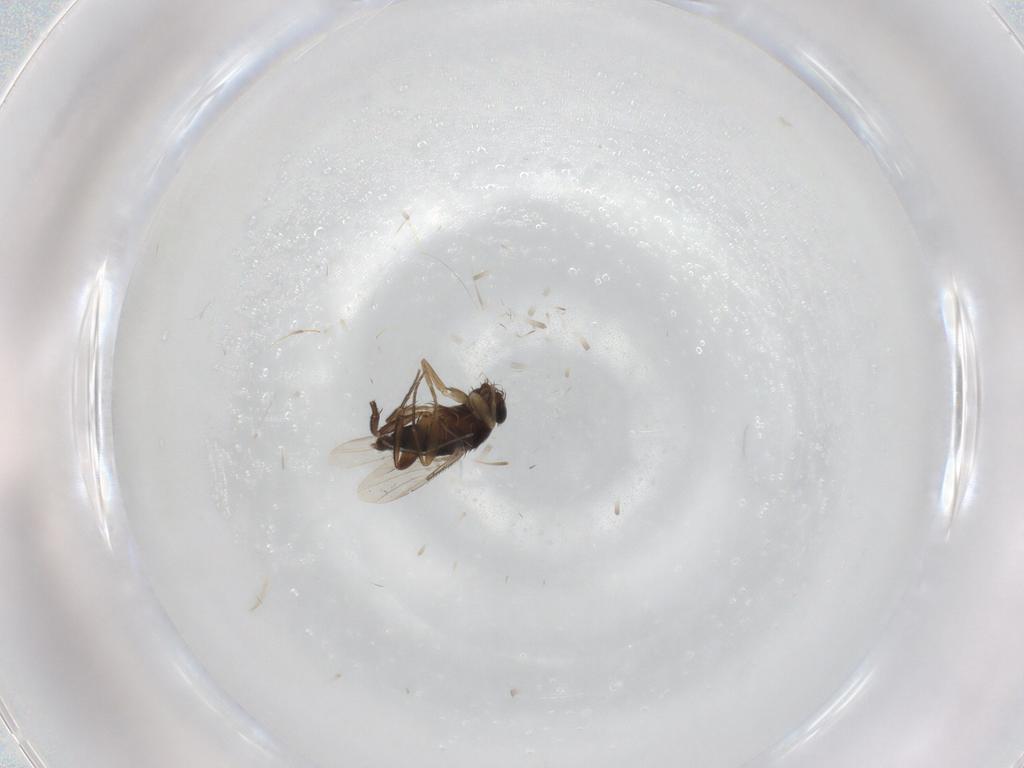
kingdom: Animalia
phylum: Arthropoda
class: Insecta
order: Diptera
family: Phoridae
